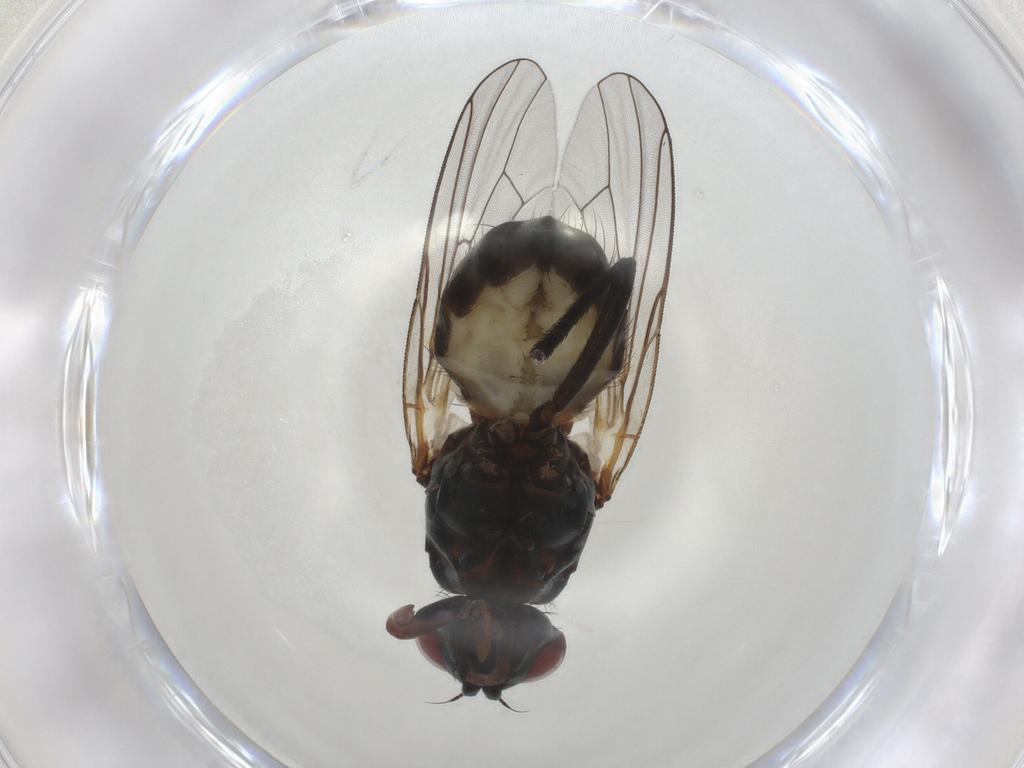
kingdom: Animalia
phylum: Arthropoda
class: Insecta
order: Diptera
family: Anthomyiidae
